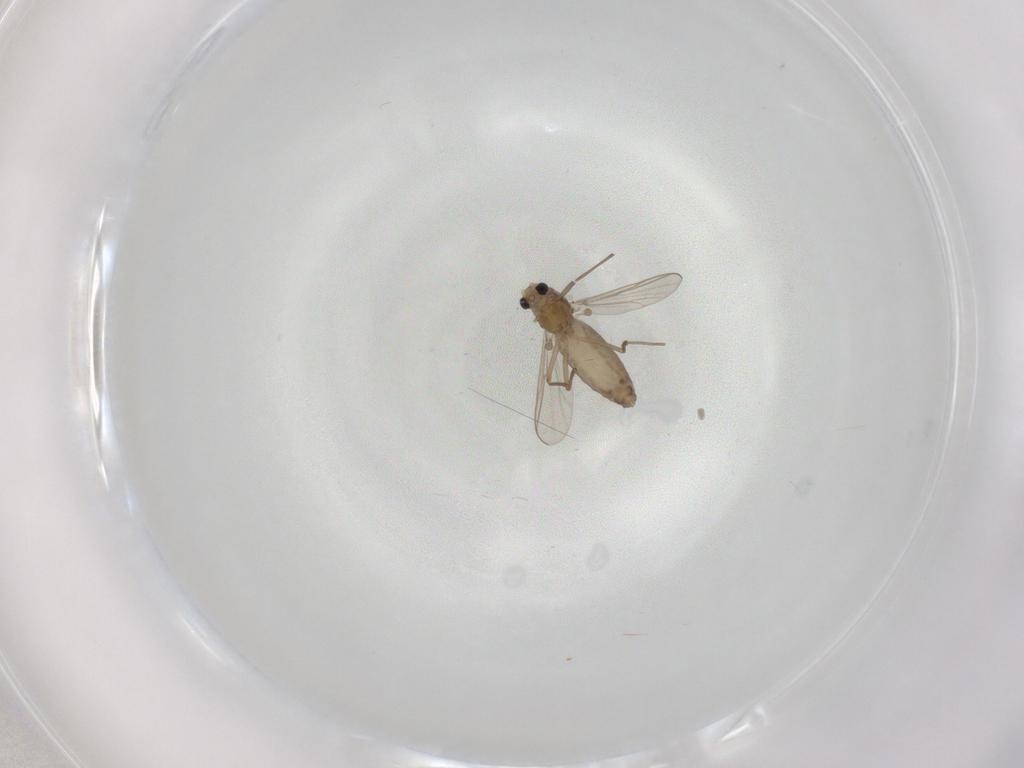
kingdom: Animalia
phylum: Arthropoda
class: Insecta
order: Diptera
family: Chironomidae
